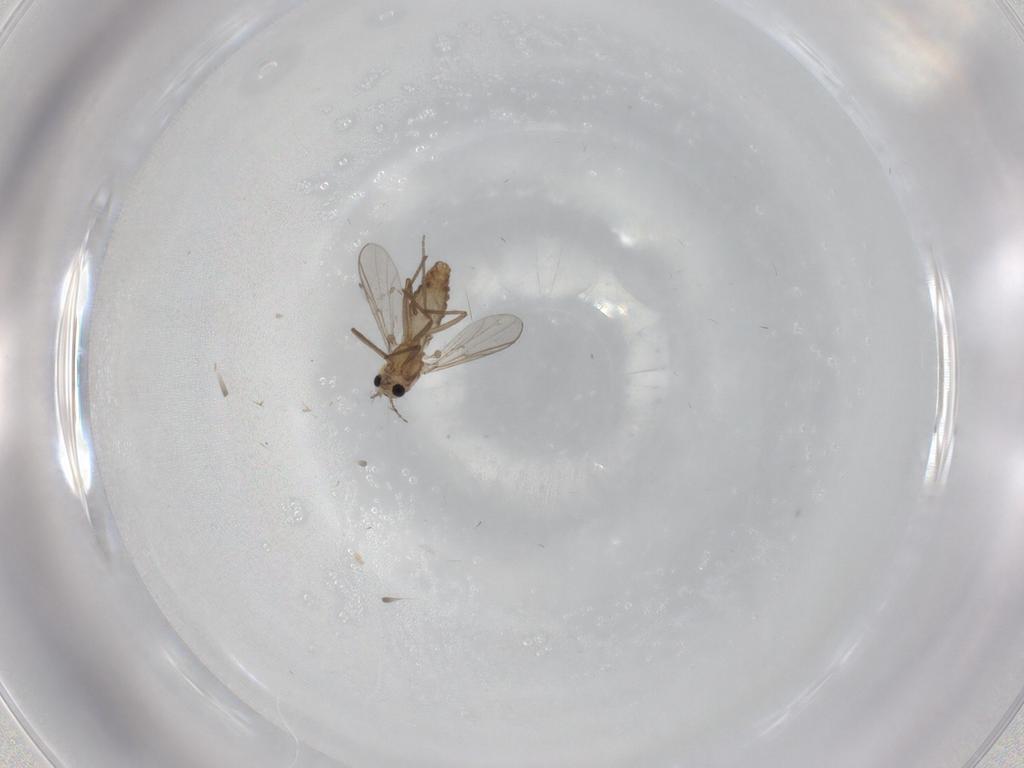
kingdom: Animalia
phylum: Arthropoda
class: Insecta
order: Diptera
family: Chironomidae
